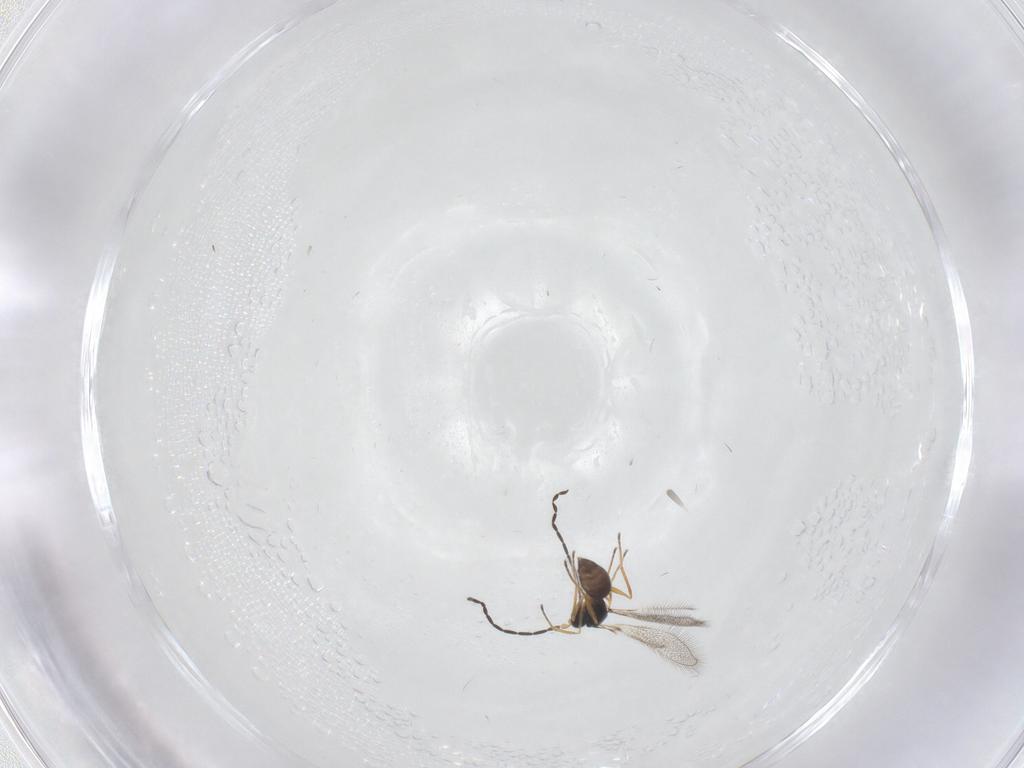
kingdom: Animalia
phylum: Arthropoda
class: Insecta
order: Hymenoptera
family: Mymaridae
